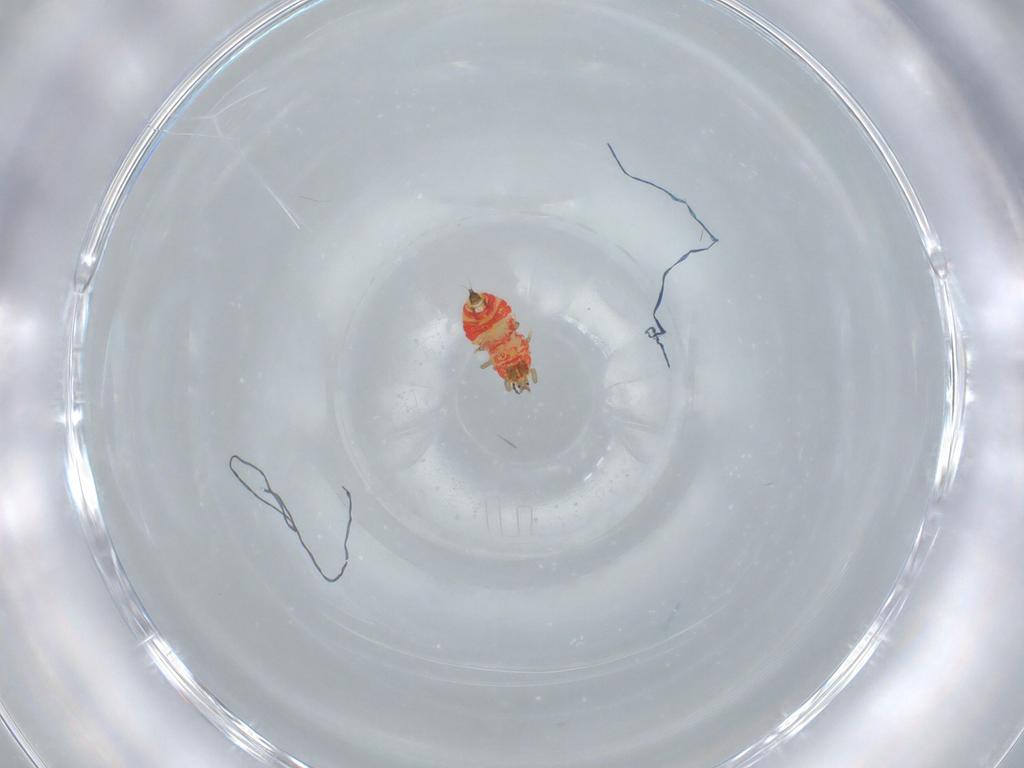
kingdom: Animalia
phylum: Arthropoda
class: Insecta
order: Thysanoptera
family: Phlaeothripidae
